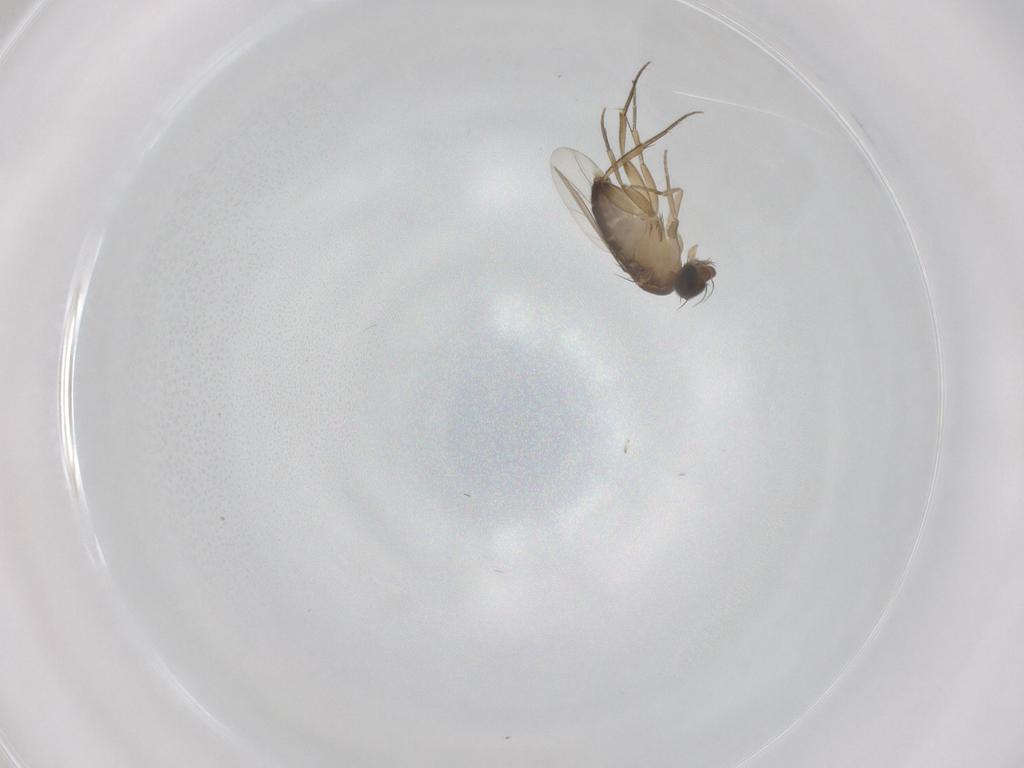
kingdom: Animalia
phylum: Arthropoda
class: Insecta
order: Diptera
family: Phoridae
